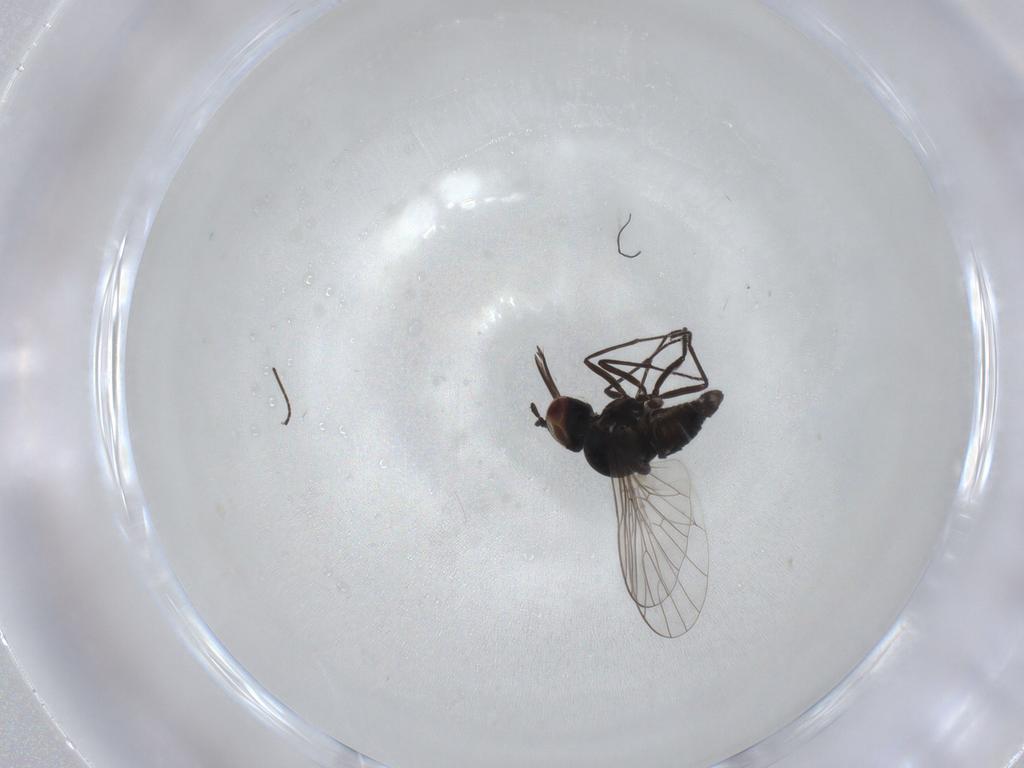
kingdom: Animalia
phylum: Arthropoda
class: Insecta
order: Diptera
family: Bombyliidae
